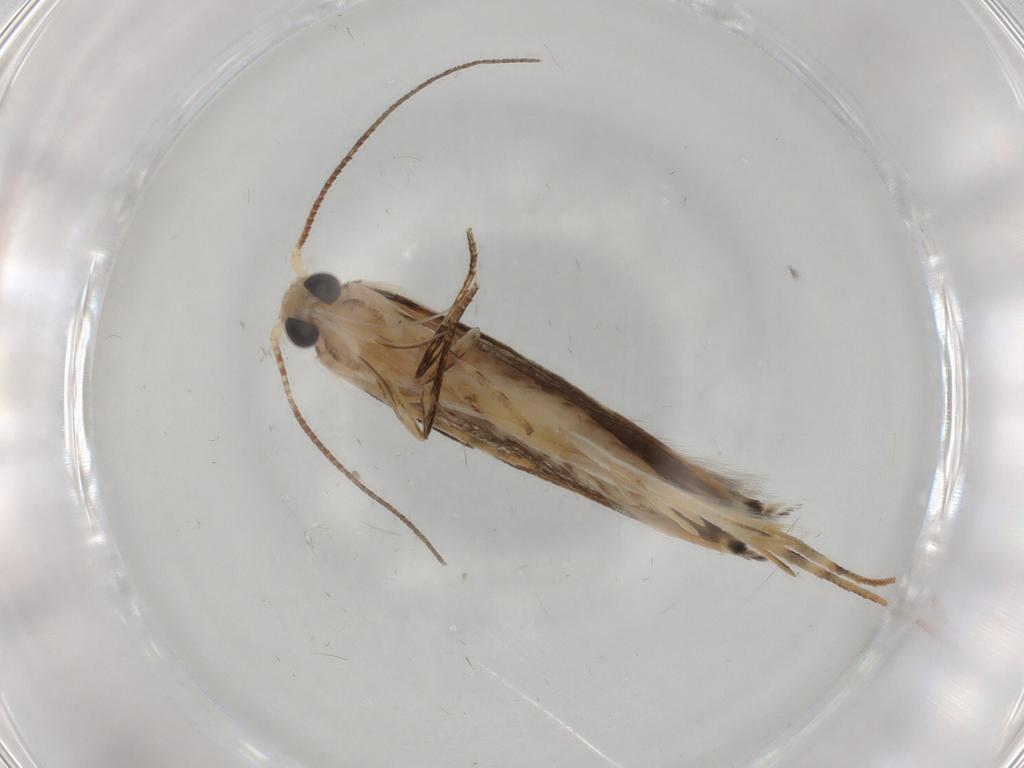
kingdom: Animalia
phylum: Arthropoda
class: Insecta
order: Lepidoptera
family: Gelechiidae
